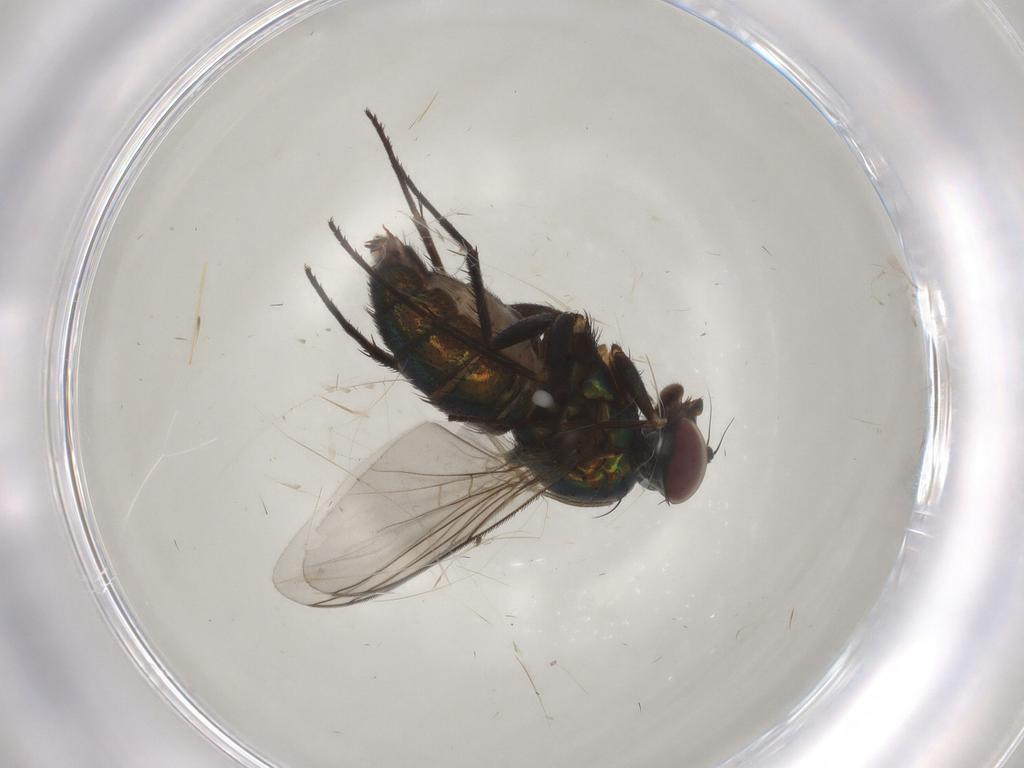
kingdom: Animalia
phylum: Arthropoda
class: Insecta
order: Diptera
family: Dolichopodidae
